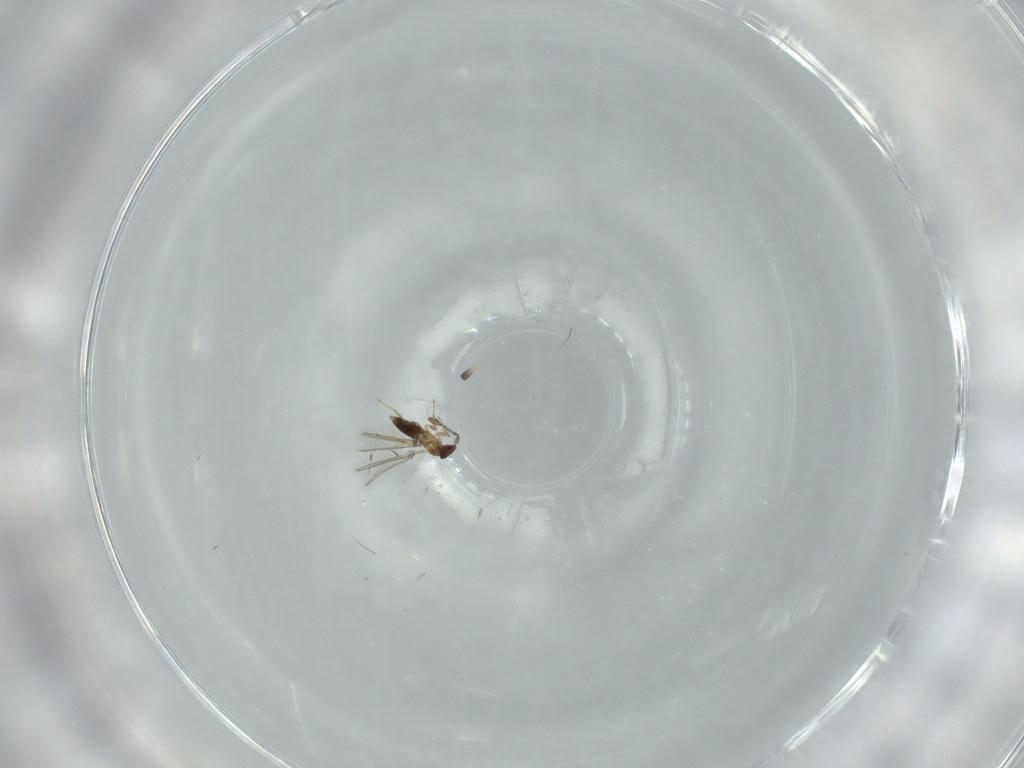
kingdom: Animalia
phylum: Arthropoda
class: Insecta
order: Hymenoptera
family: Mymaridae
